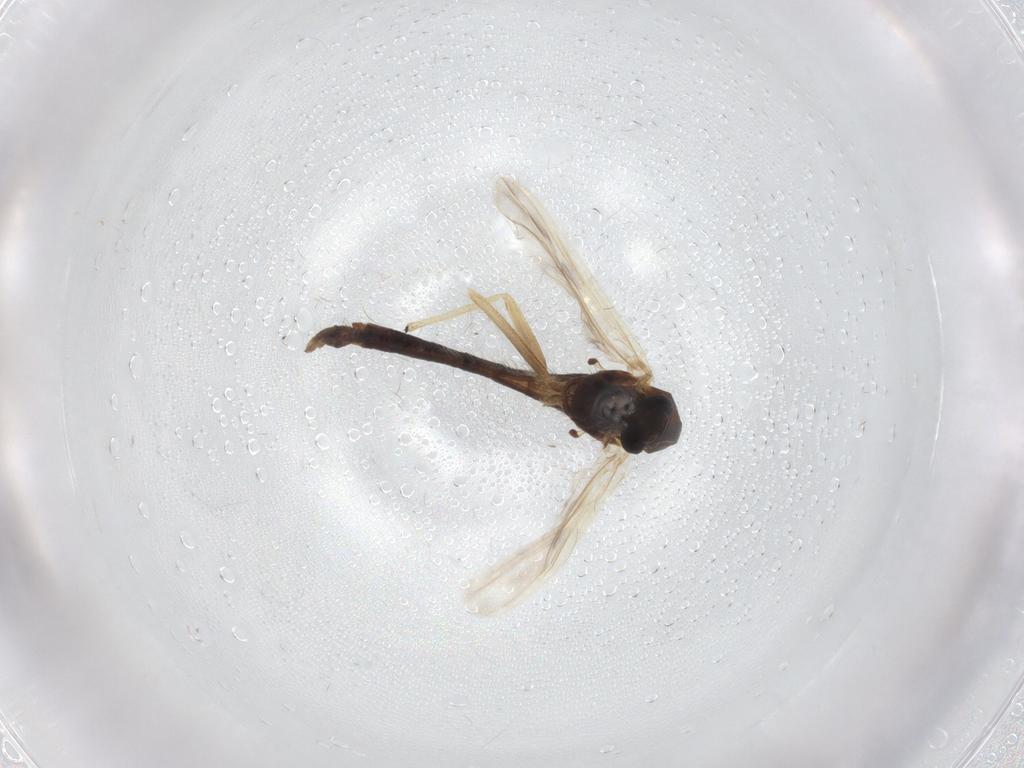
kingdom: Animalia
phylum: Arthropoda
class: Insecta
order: Diptera
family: Chironomidae
